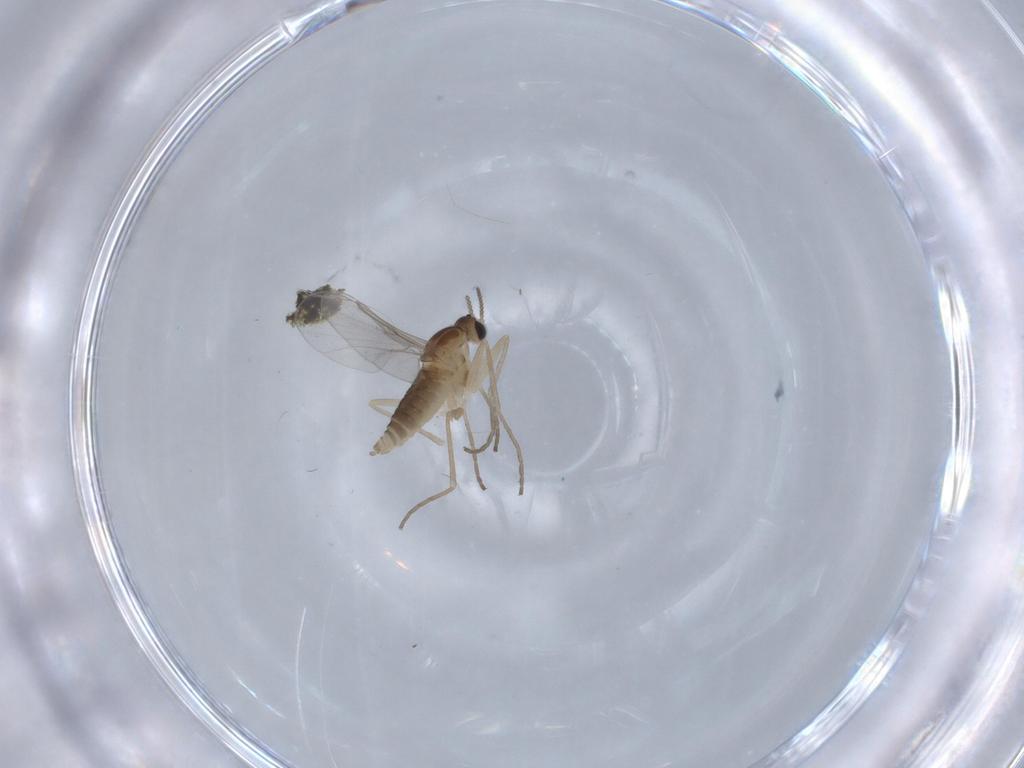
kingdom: Animalia
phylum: Arthropoda
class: Insecta
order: Diptera
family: Cecidomyiidae
